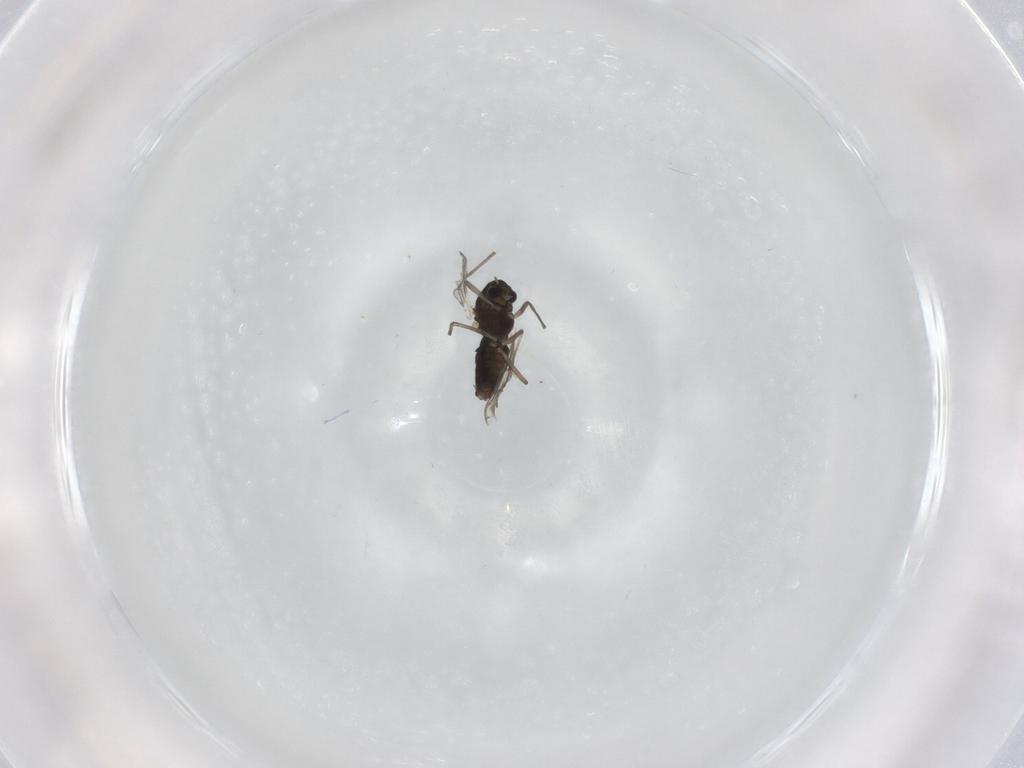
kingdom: Animalia
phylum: Arthropoda
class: Insecta
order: Diptera
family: Chironomidae
